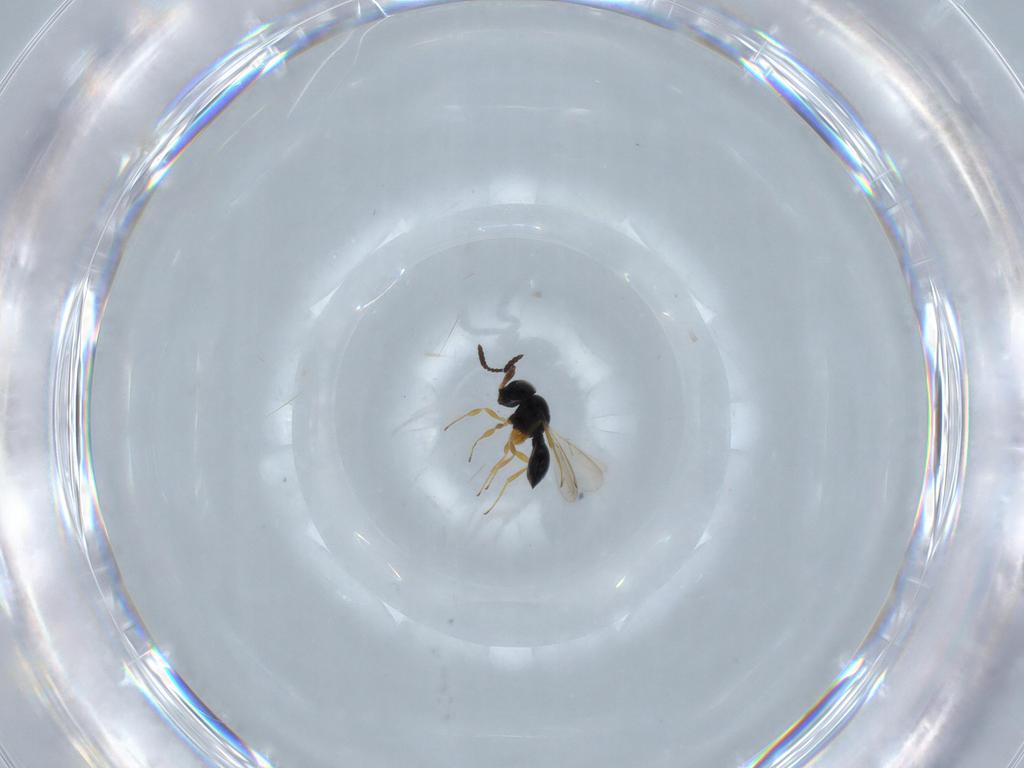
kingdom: Animalia
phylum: Arthropoda
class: Insecta
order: Hymenoptera
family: Scelionidae
